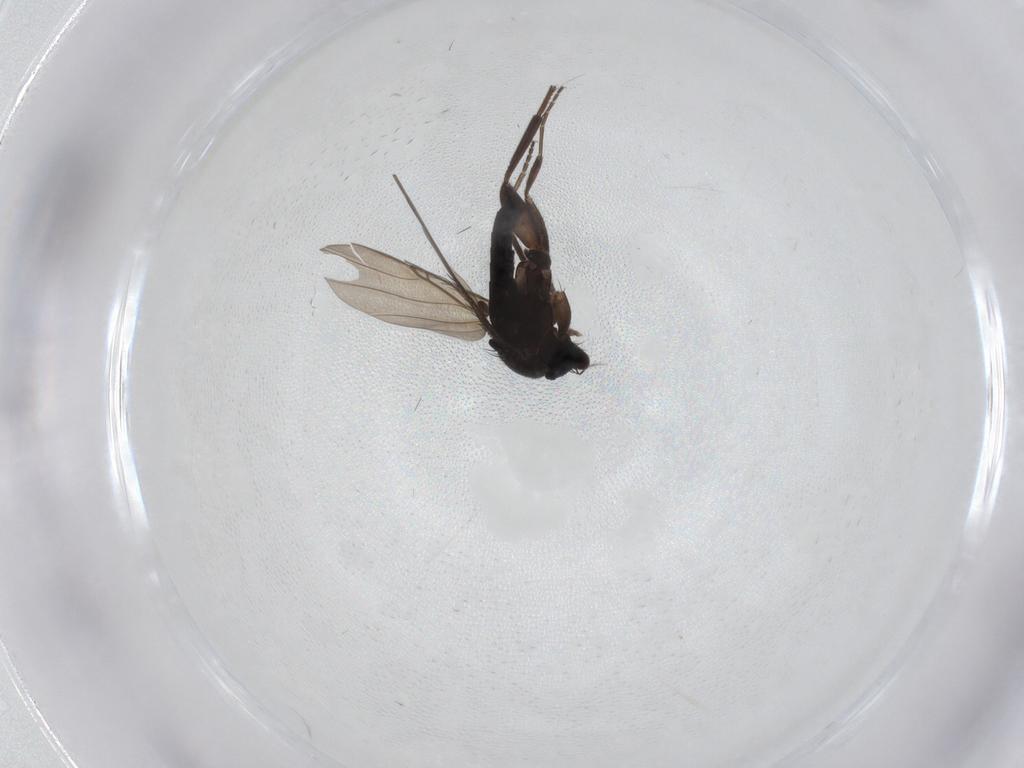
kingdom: Animalia
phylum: Arthropoda
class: Insecta
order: Diptera
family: Phoridae
